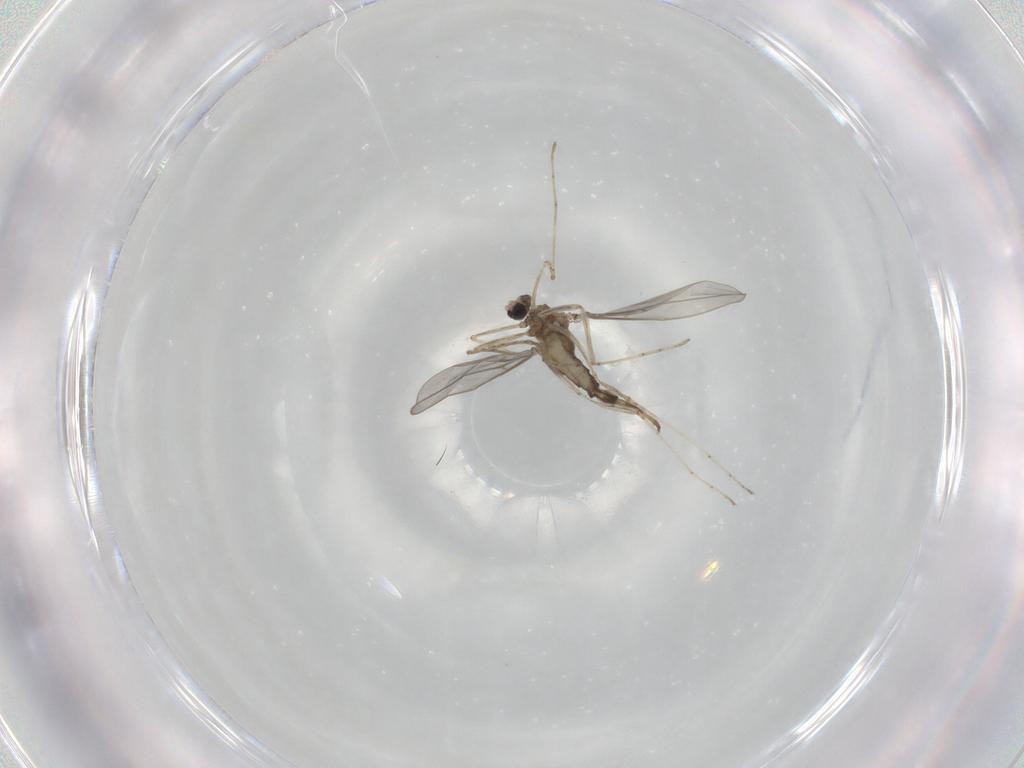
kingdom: Animalia
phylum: Arthropoda
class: Insecta
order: Diptera
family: Cecidomyiidae
